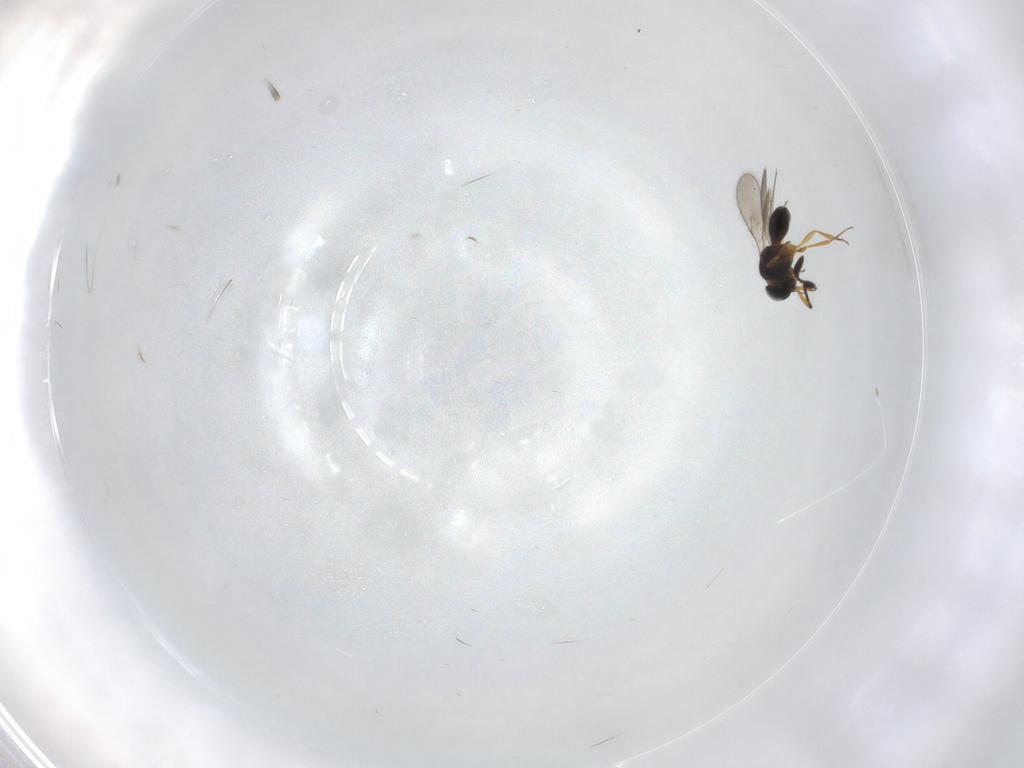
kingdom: Animalia
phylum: Arthropoda
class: Insecta
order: Hymenoptera
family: Scelionidae
